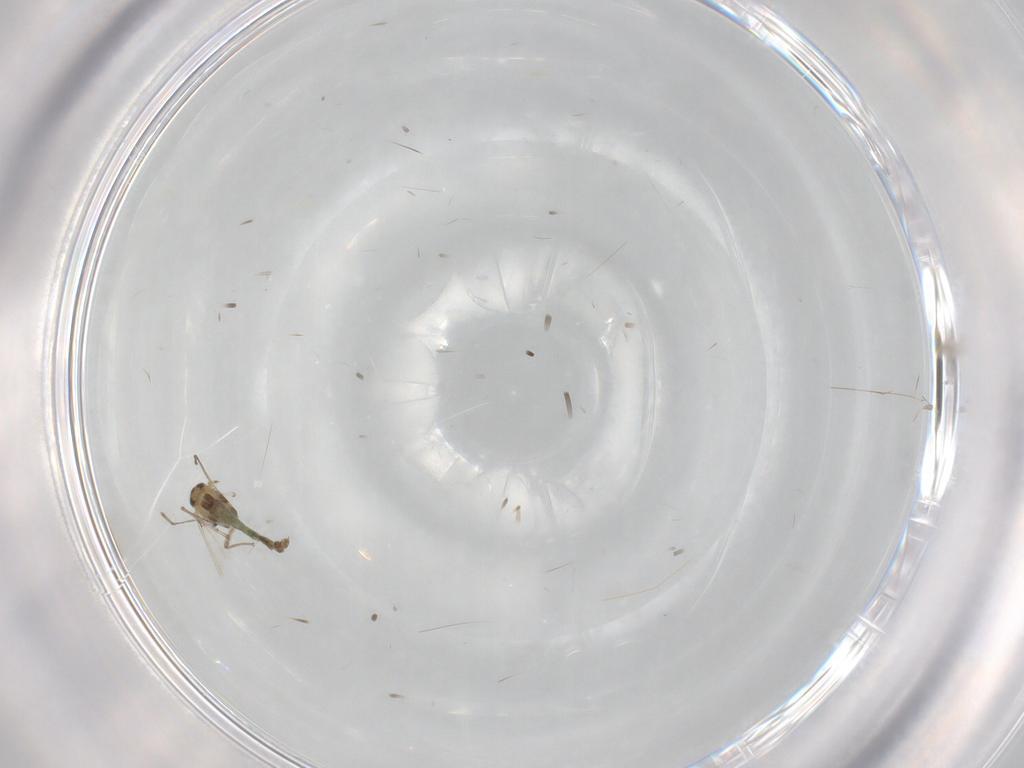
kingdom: Animalia
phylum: Arthropoda
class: Insecta
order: Diptera
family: Chironomidae
